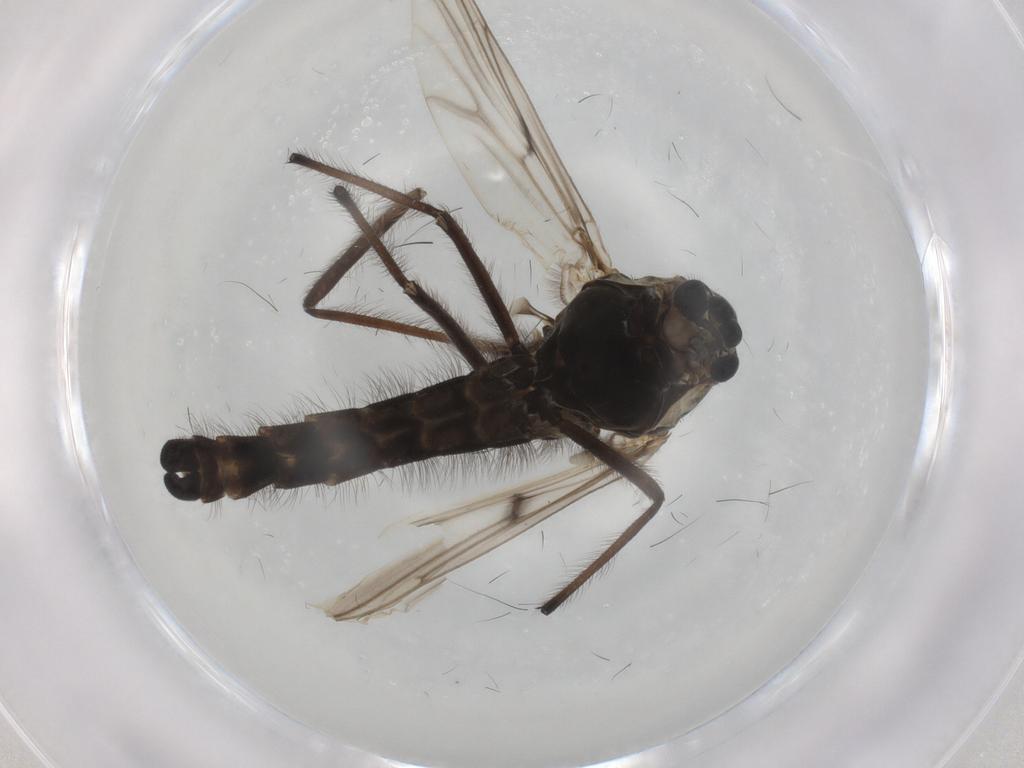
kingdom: Animalia
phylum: Arthropoda
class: Insecta
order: Diptera
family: Chironomidae
